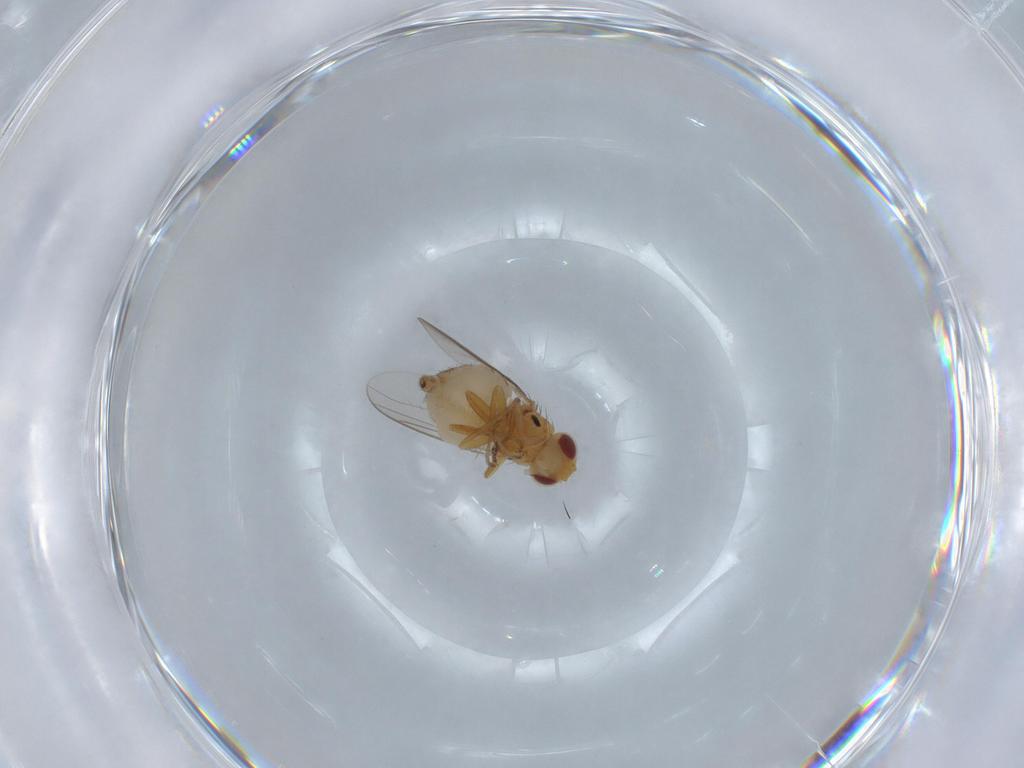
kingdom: Animalia
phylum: Arthropoda
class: Insecta
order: Diptera
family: Chloropidae
